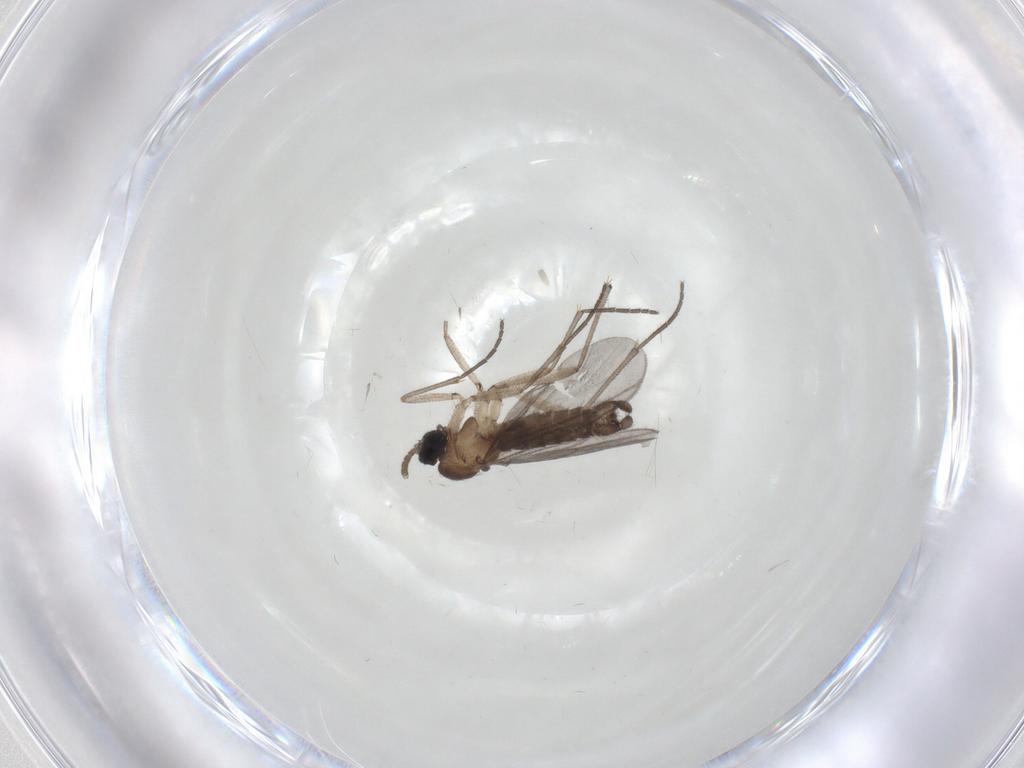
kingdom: Animalia
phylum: Arthropoda
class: Insecta
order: Diptera
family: Cecidomyiidae
